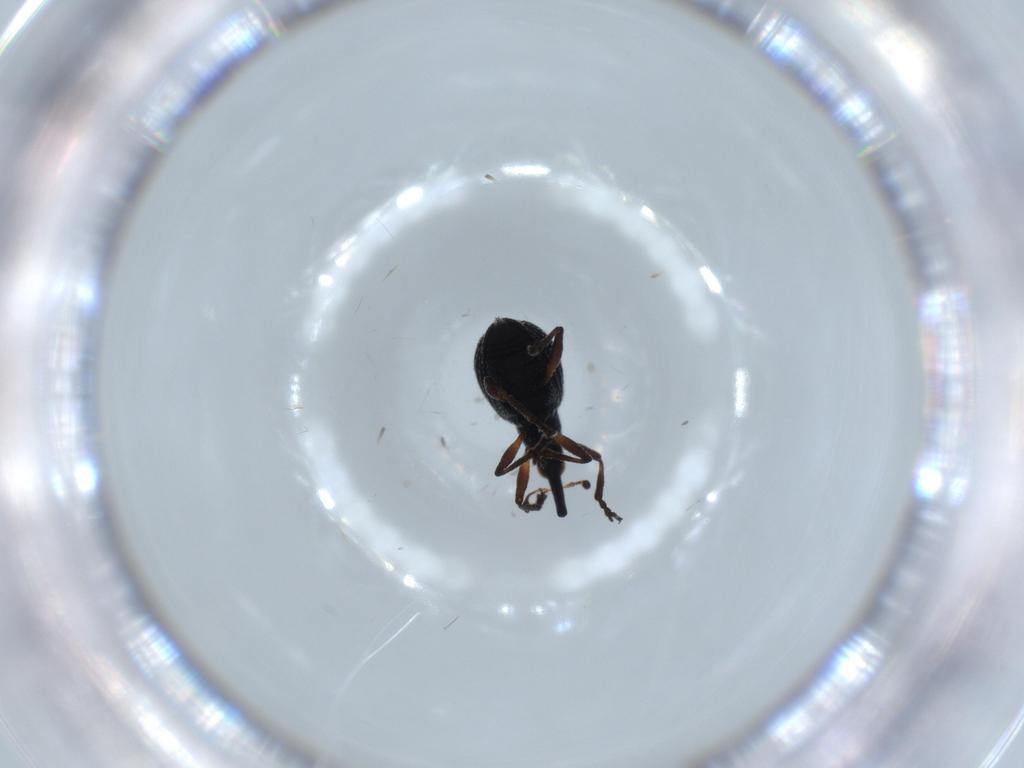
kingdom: Animalia
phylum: Arthropoda
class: Insecta
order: Coleoptera
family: Brentidae
